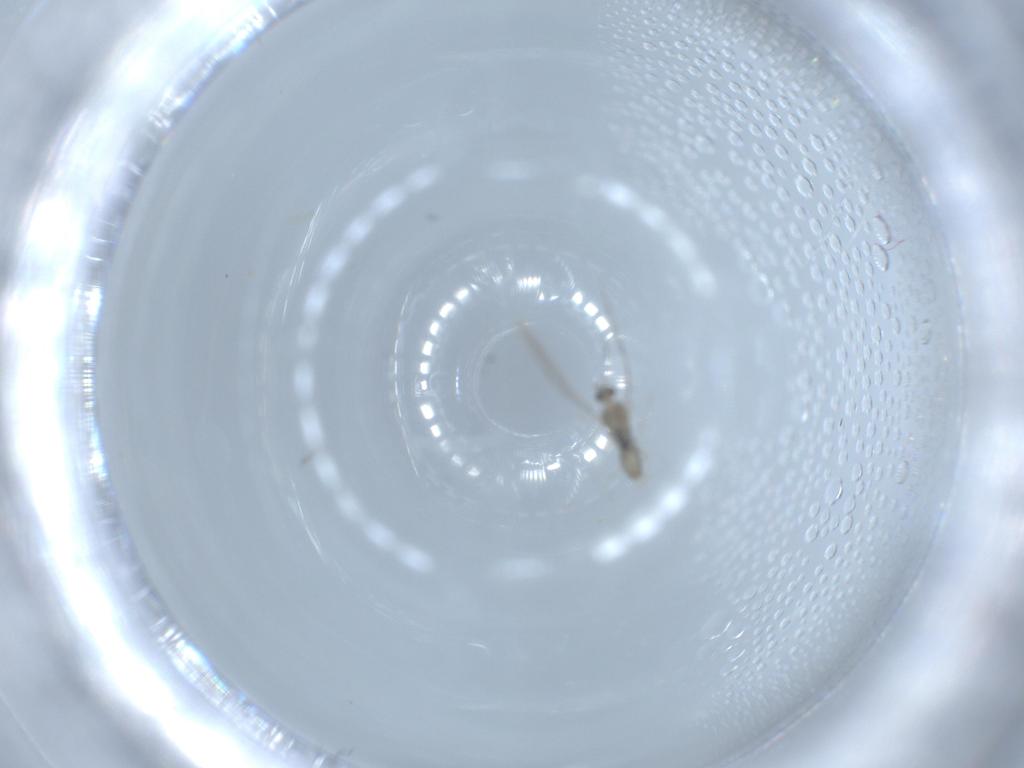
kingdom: Animalia
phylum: Arthropoda
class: Insecta
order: Diptera
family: Cecidomyiidae
